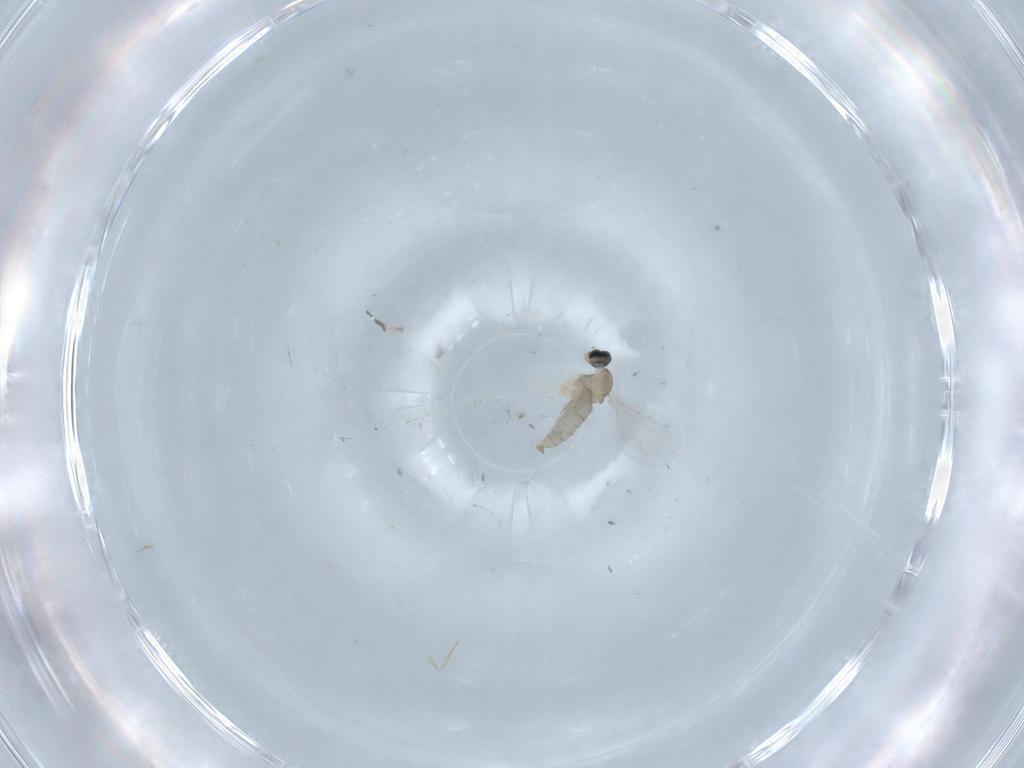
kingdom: Animalia
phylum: Arthropoda
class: Insecta
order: Diptera
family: Cecidomyiidae
